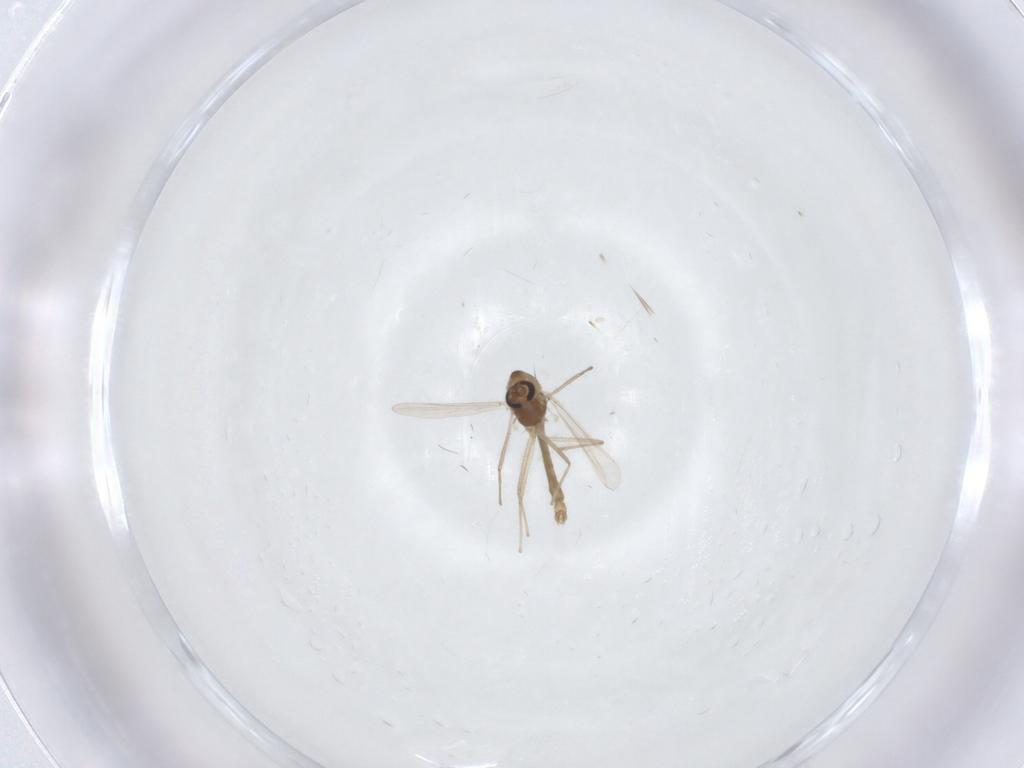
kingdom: Animalia
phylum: Arthropoda
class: Insecta
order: Diptera
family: Chironomidae
